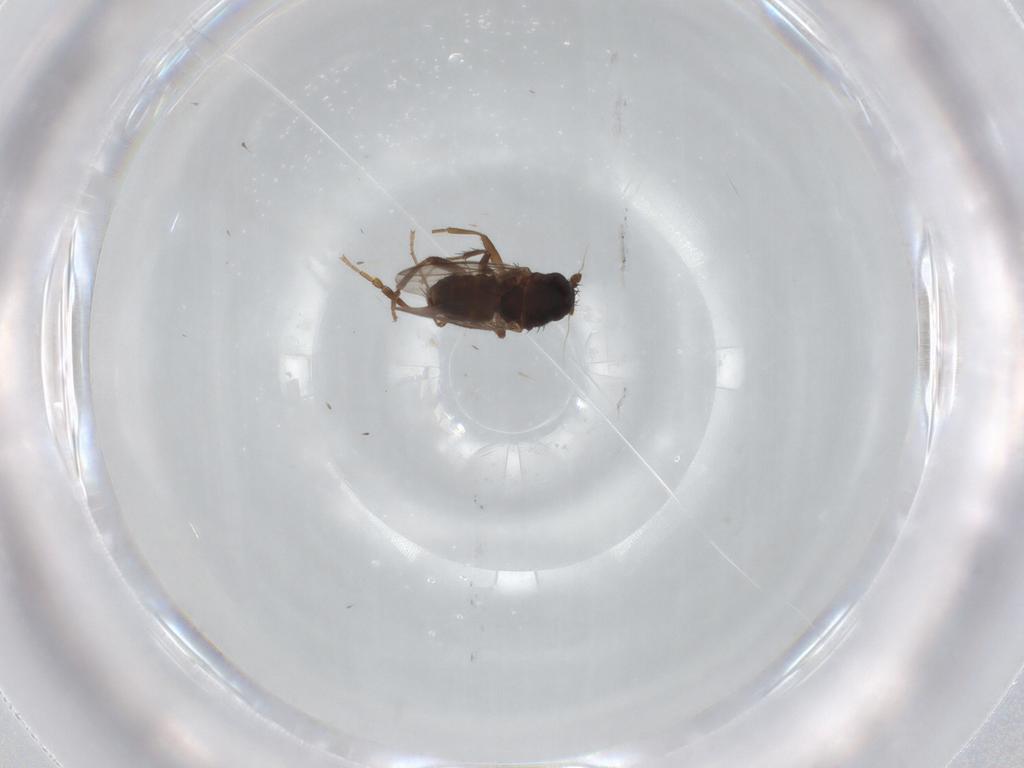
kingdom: Animalia
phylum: Arthropoda
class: Insecta
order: Diptera
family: Sphaeroceridae
